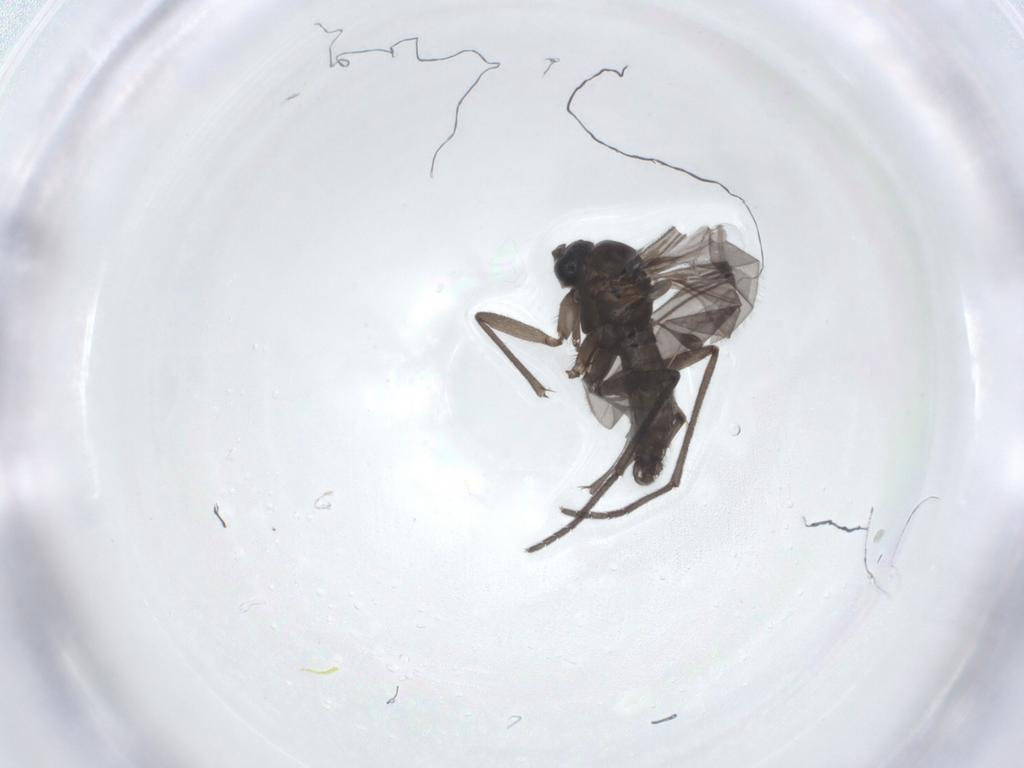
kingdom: Animalia
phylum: Arthropoda
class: Insecta
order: Diptera
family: Sciaridae
